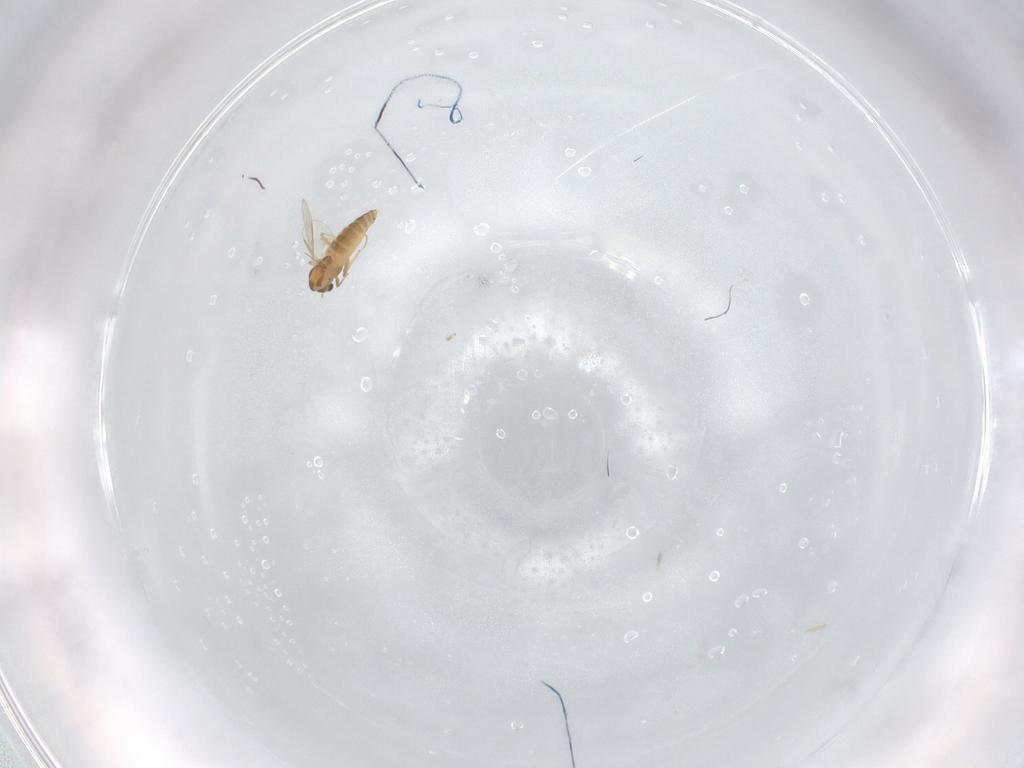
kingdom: Animalia
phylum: Arthropoda
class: Insecta
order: Diptera
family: Chironomidae
